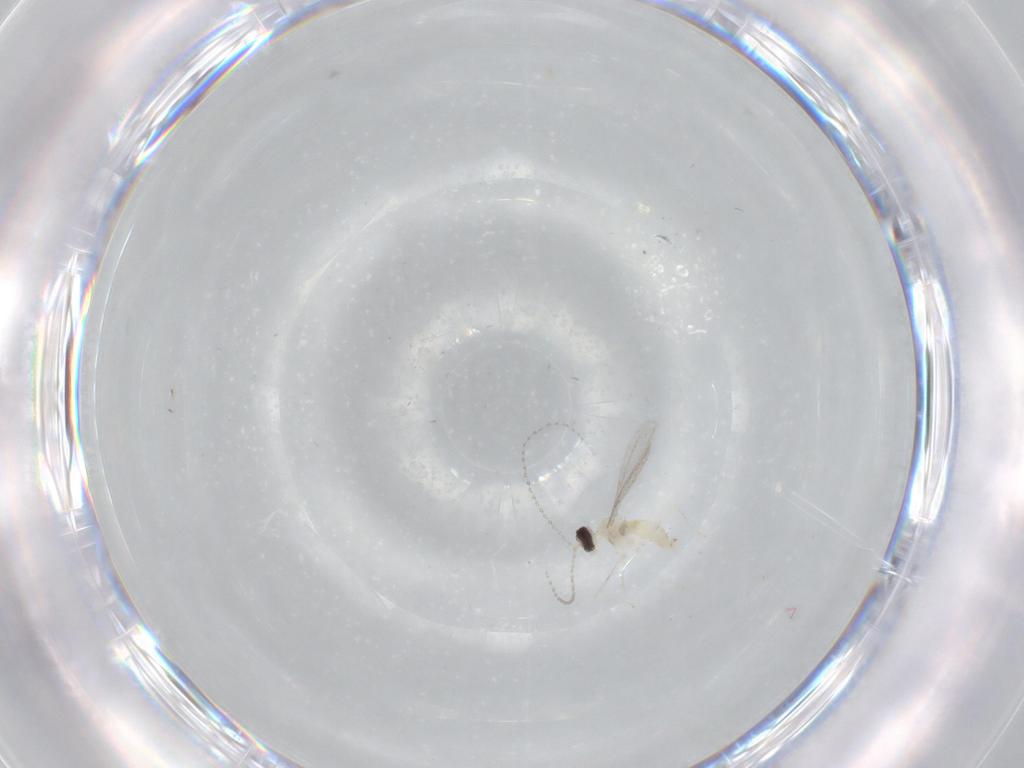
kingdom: Animalia
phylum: Arthropoda
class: Insecta
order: Diptera
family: Cecidomyiidae
